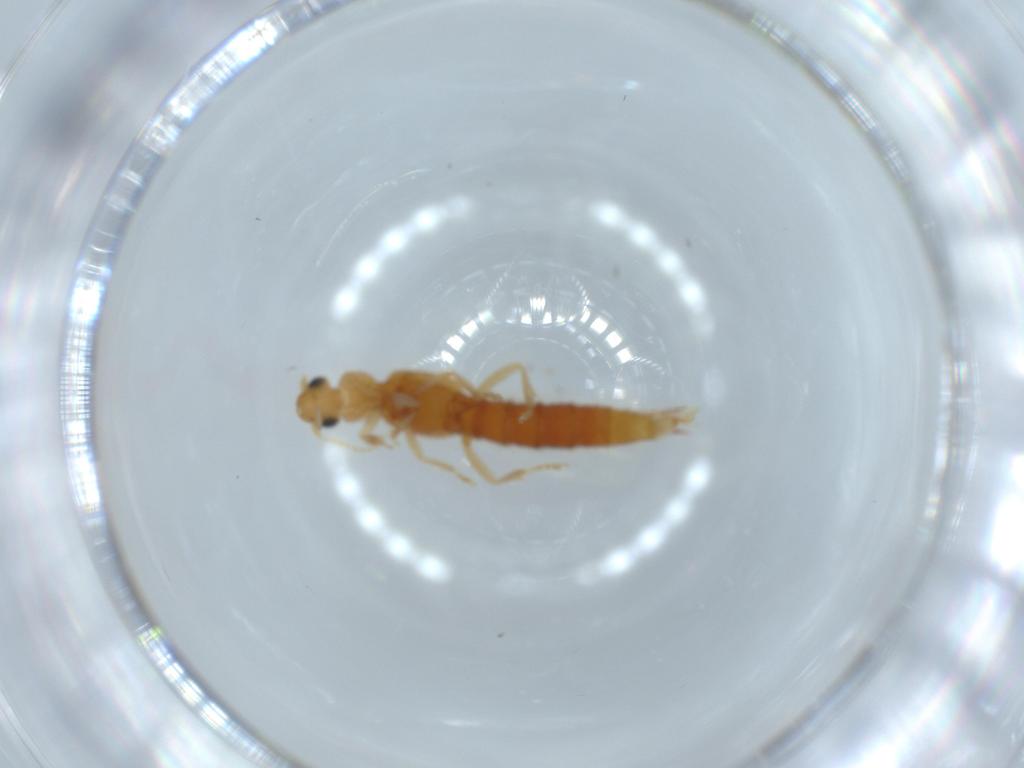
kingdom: Animalia
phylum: Arthropoda
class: Insecta
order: Coleoptera
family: Staphylinidae
